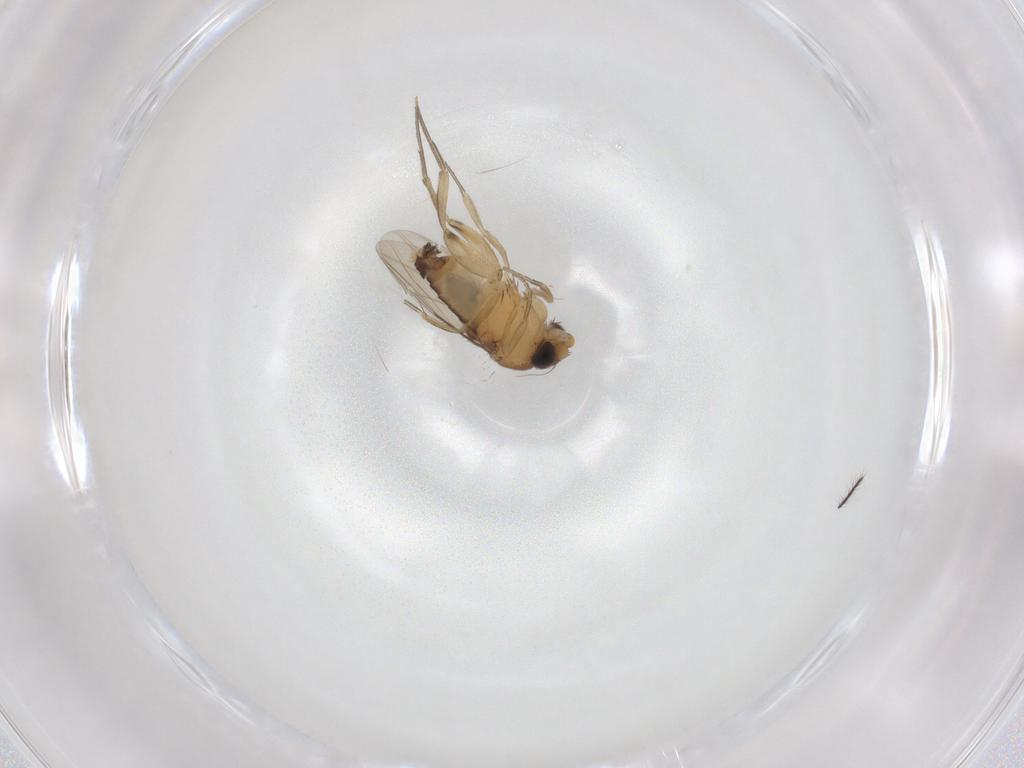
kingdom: Animalia
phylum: Arthropoda
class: Insecta
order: Diptera
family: Phoridae
